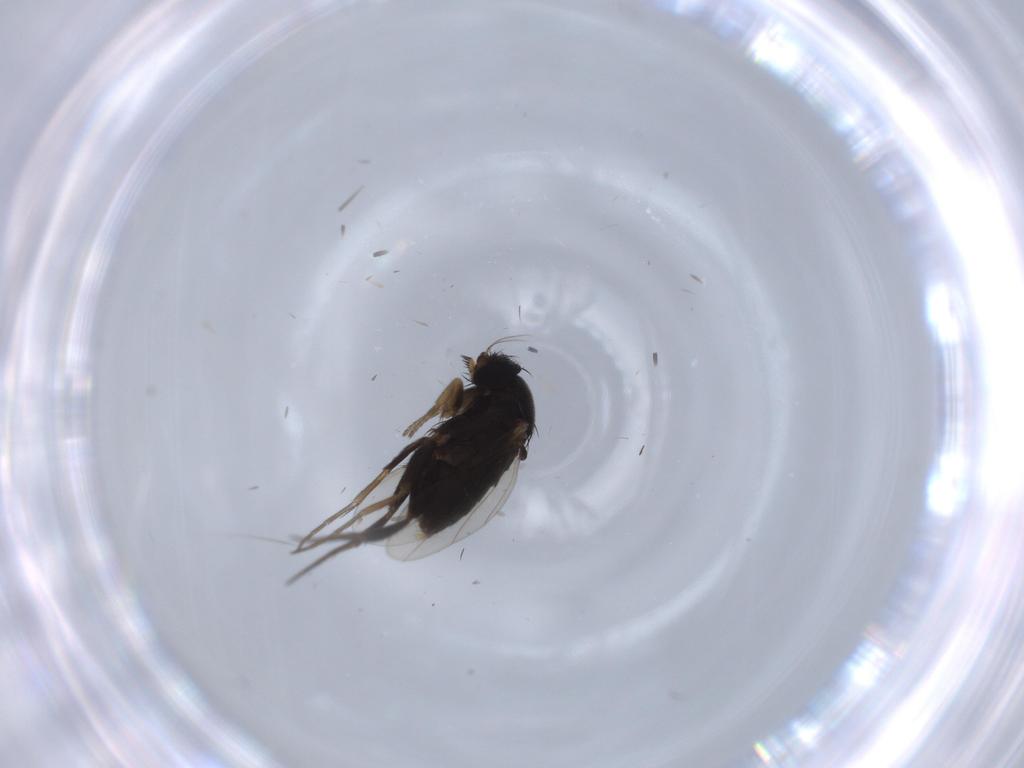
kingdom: Animalia
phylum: Arthropoda
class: Insecta
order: Diptera
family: Phoridae
